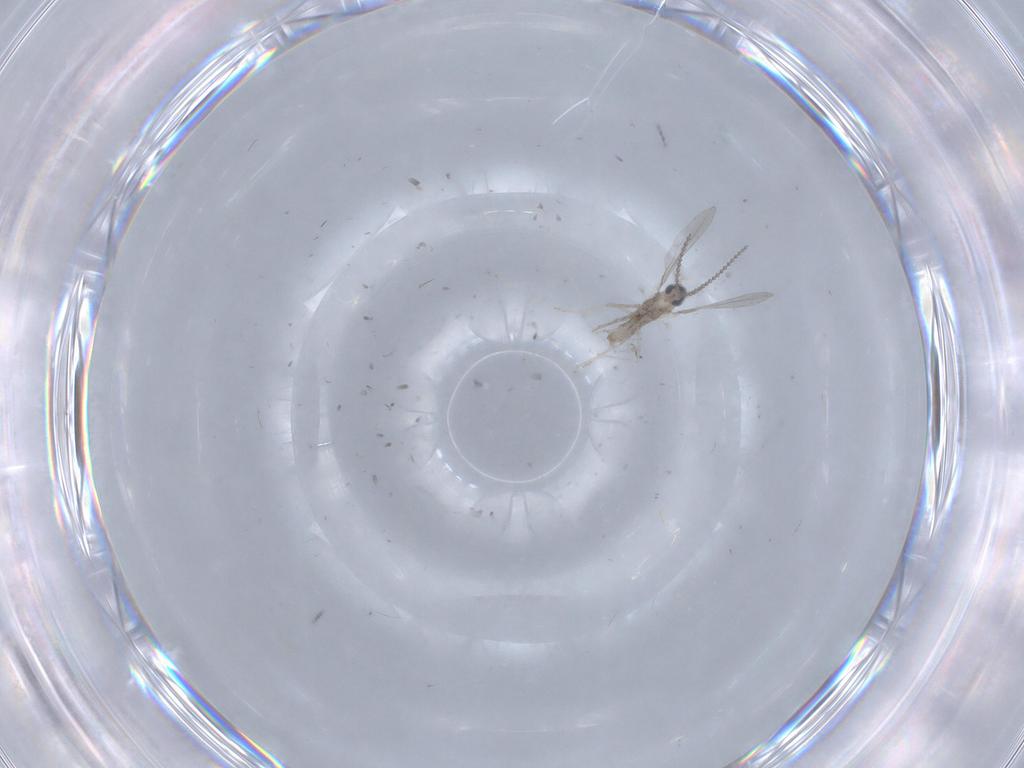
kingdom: Animalia
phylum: Arthropoda
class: Insecta
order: Diptera
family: Cecidomyiidae
